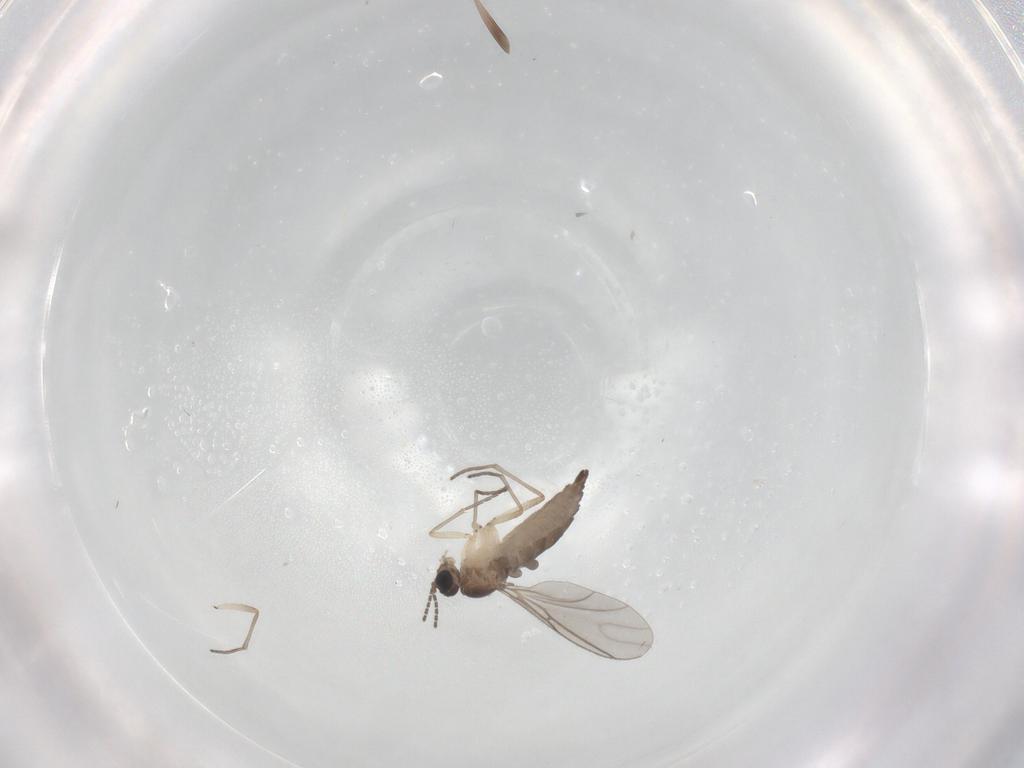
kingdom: Animalia
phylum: Arthropoda
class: Insecta
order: Diptera
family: Sciaridae
